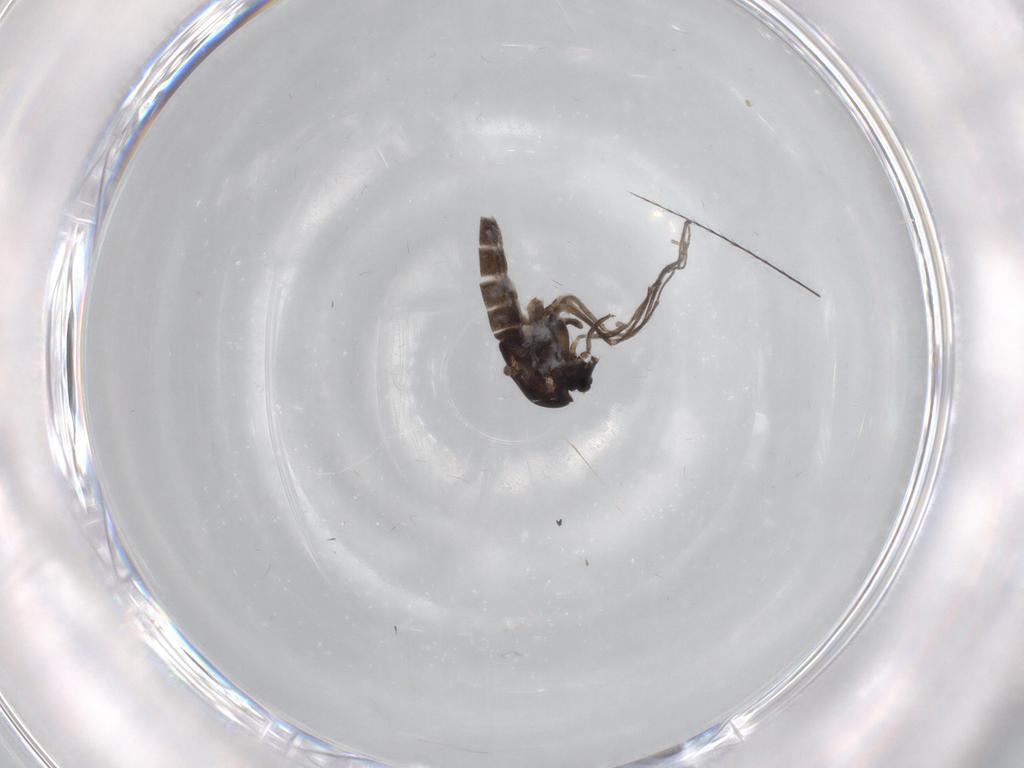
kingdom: Animalia
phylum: Arthropoda
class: Insecta
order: Diptera
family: Chironomidae
